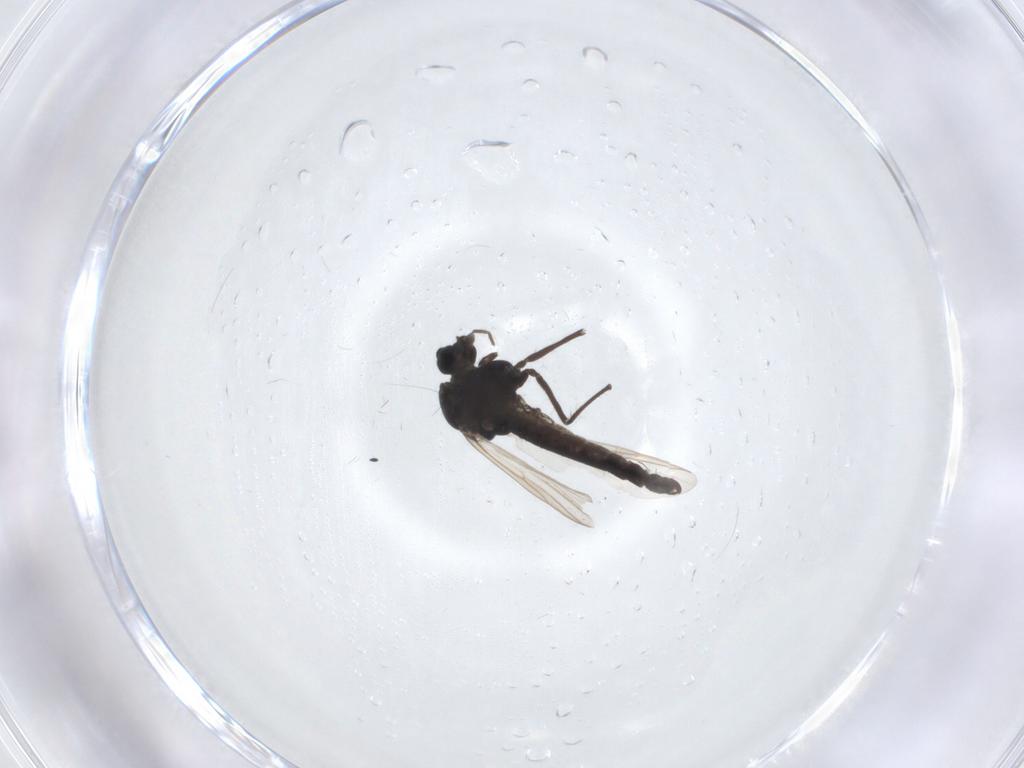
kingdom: Animalia
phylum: Arthropoda
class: Insecta
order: Diptera
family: Chironomidae
